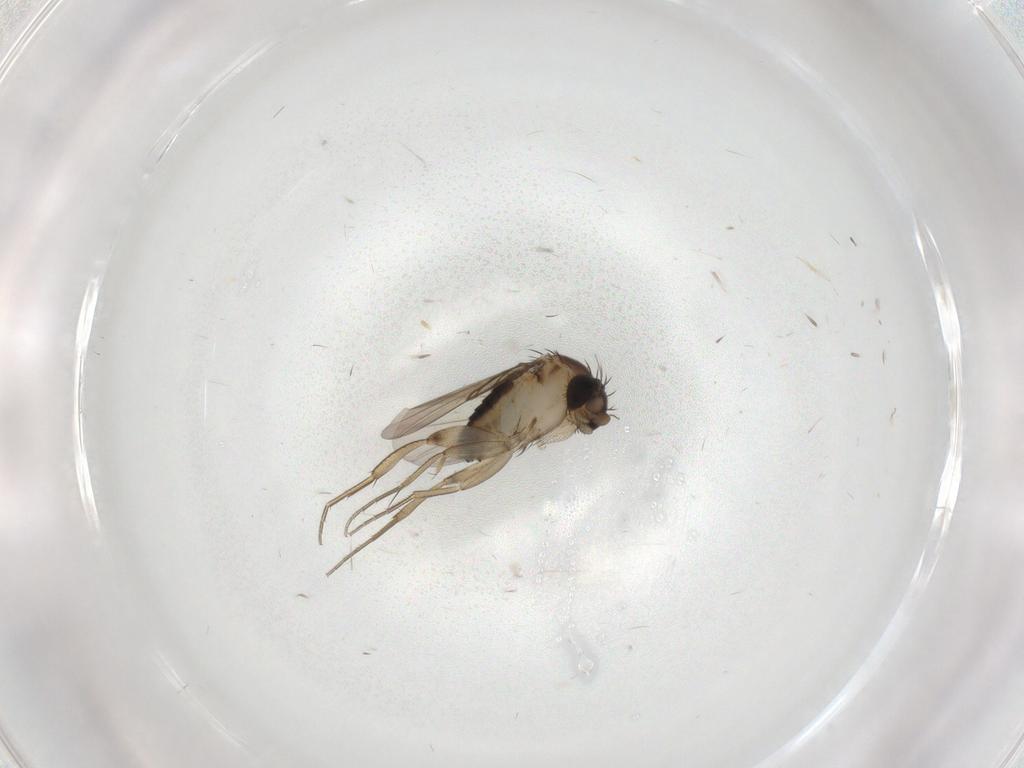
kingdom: Animalia
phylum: Arthropoda
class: Insecta
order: Diptera
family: Phoridae
